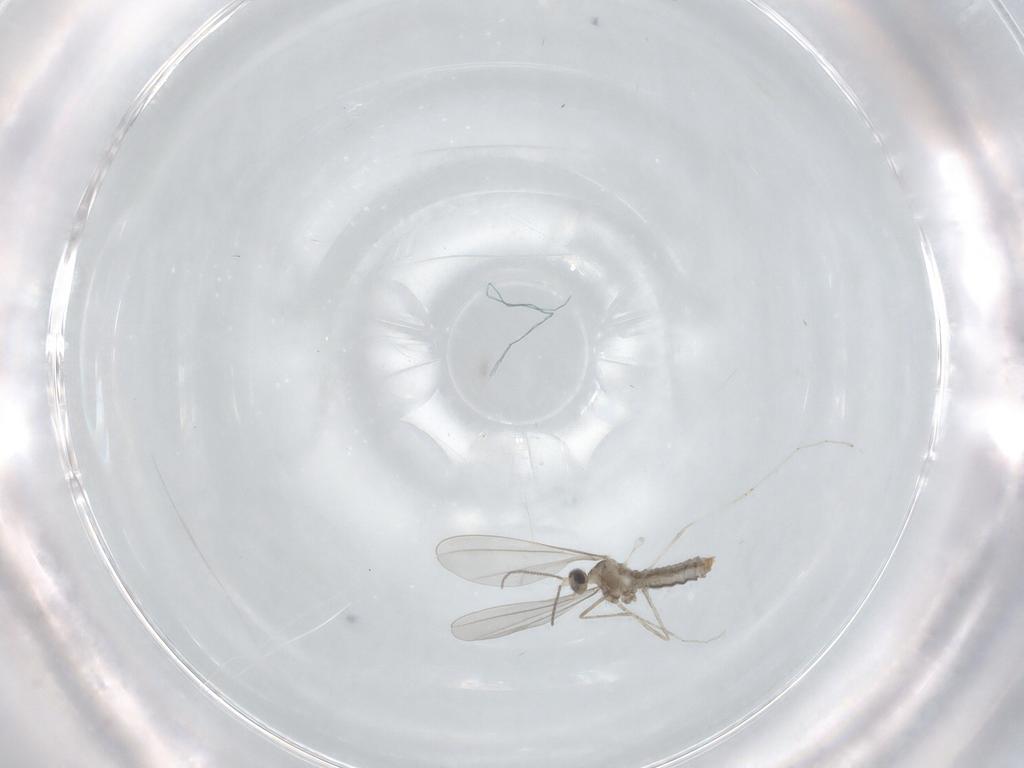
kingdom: Animalia
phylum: Arthropoda
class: Insecta
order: Diptera
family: Cecidomyiidae
